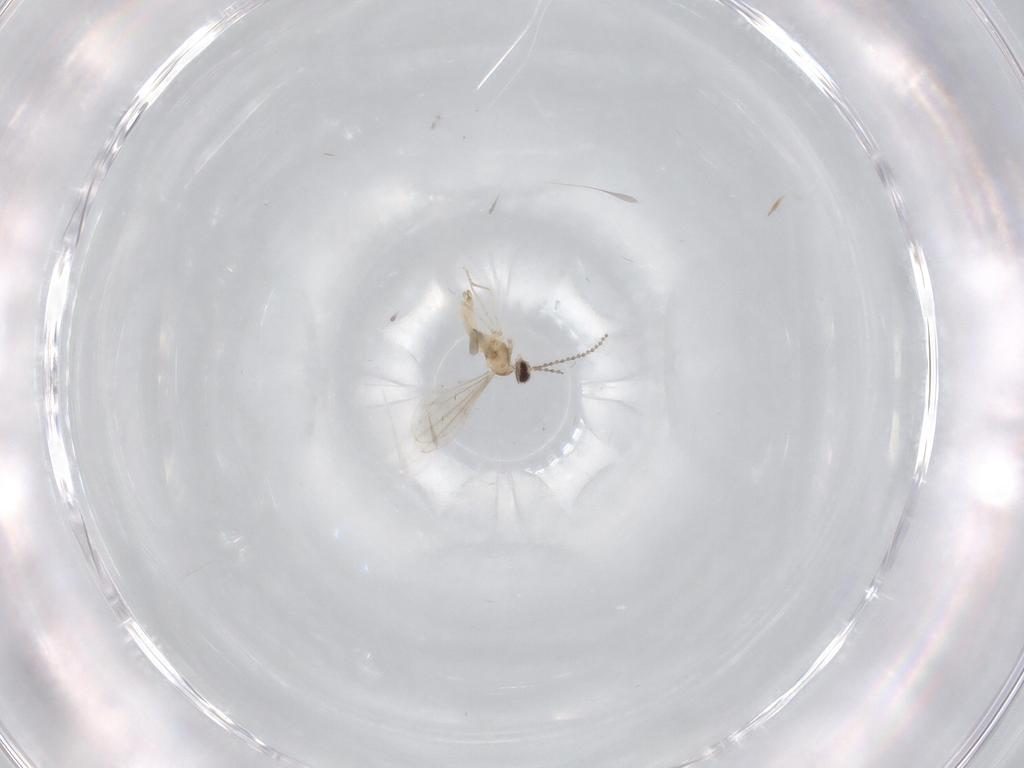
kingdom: Animalia
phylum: Arthropoda
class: Insecta
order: Diptera
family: Cecidomyiidae
